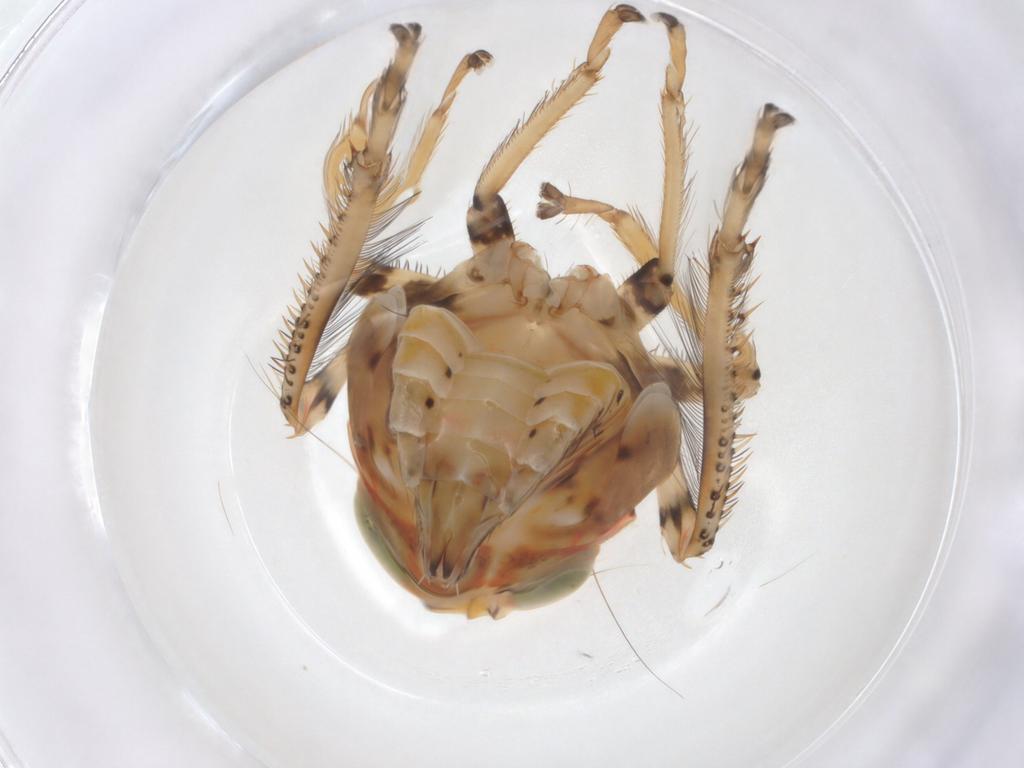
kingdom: Animalia
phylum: Arthropoda
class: Insecta
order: Hemiptera
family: Cicadellidae
